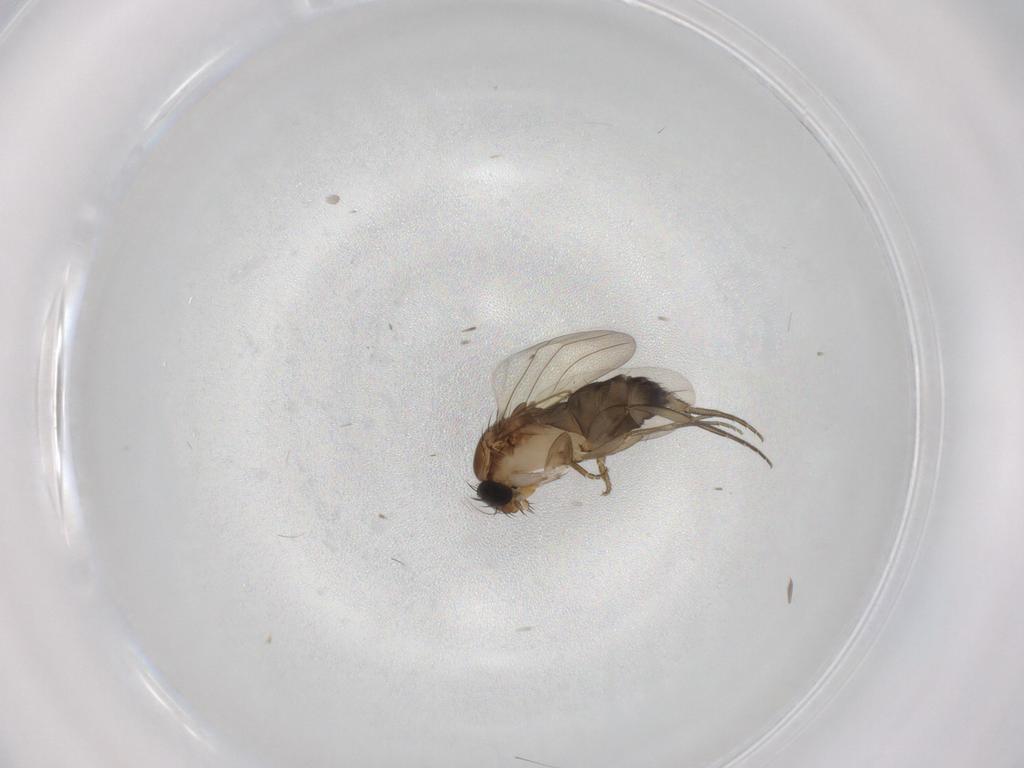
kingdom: Animalia
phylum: Arthropoda
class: Insecta
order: Diptera
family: Phoridae
